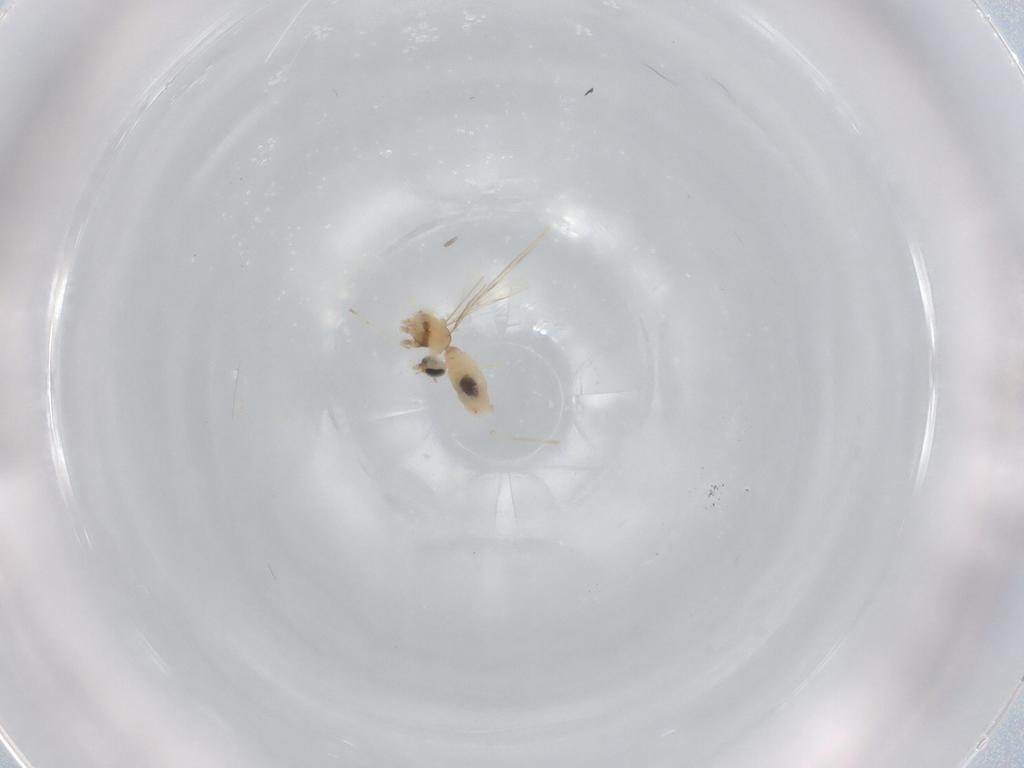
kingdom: Animalia
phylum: Arthropoda
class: Insecta
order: Diptera
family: Cecidomyiidae
